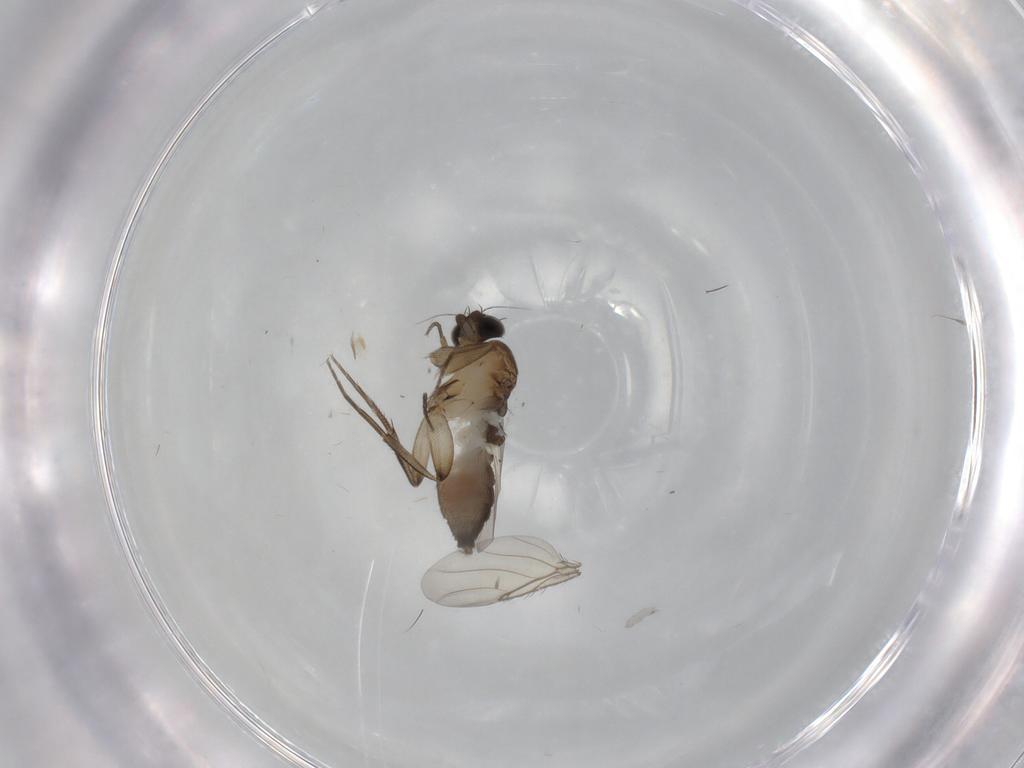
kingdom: Animalia
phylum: Arthropoda
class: Insecta
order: Diptera
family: Phoridae
